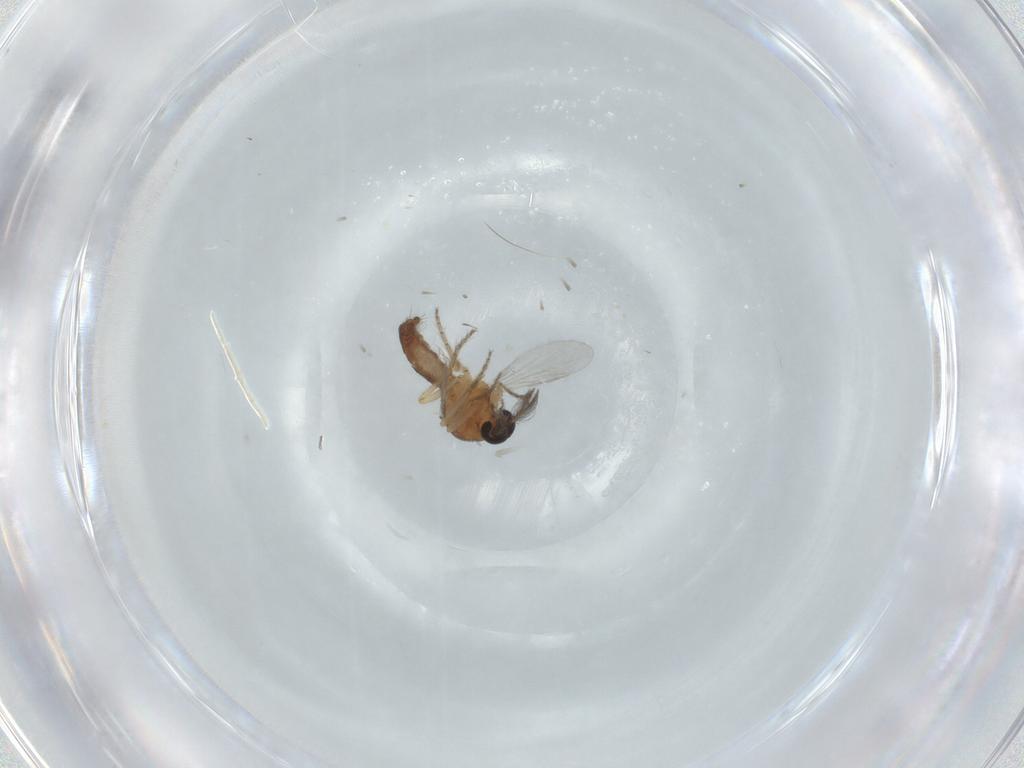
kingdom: Animalia
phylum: Arthropoda
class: Insecta
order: Diptera
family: Ceratopogonidae
